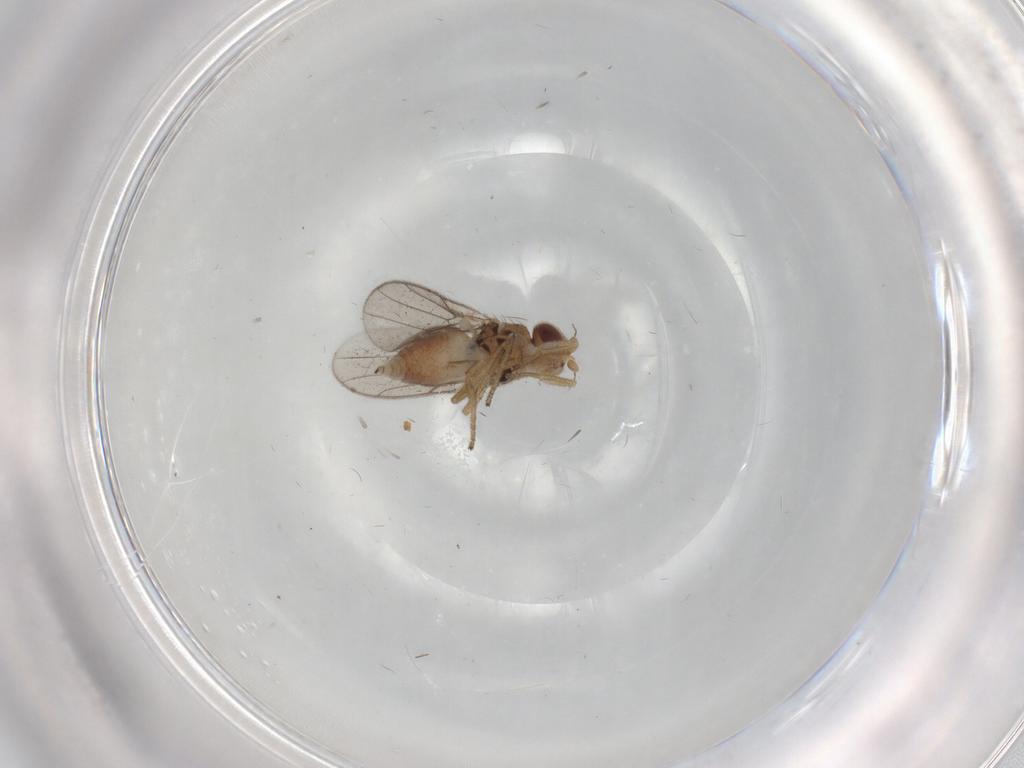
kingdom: Animalia
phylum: Arthropoda
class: Insecta
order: Diptera
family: Chloropidae
